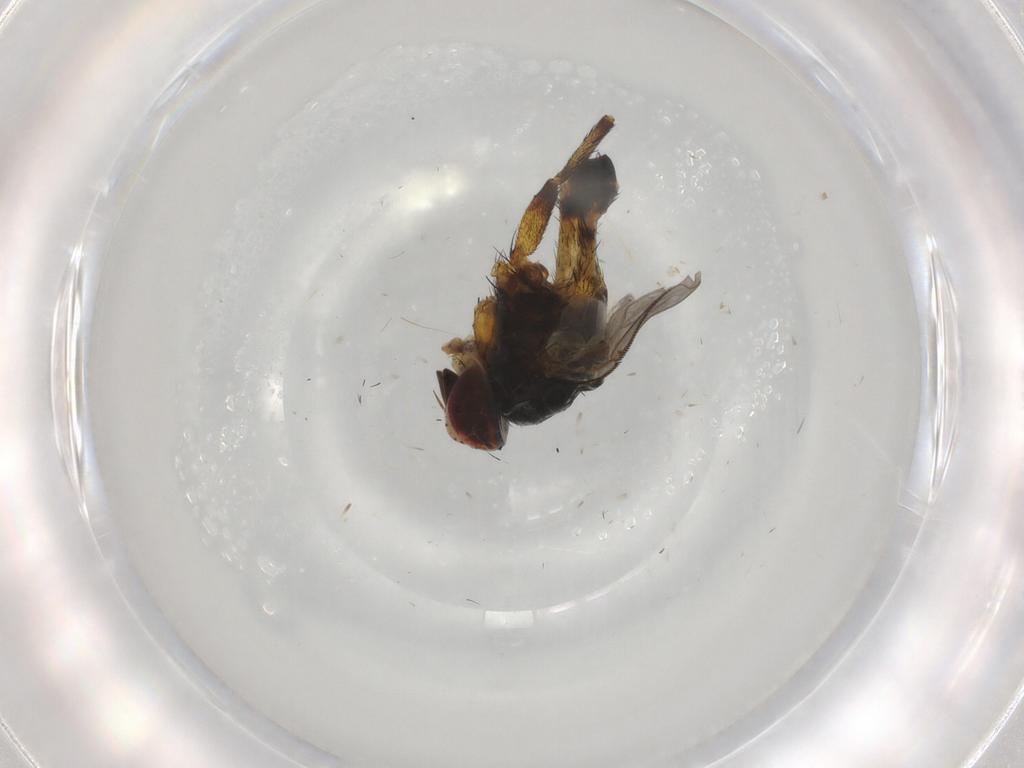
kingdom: Animalia
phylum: Arthropoda
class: Insecta
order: Diptera
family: Tachinidae
